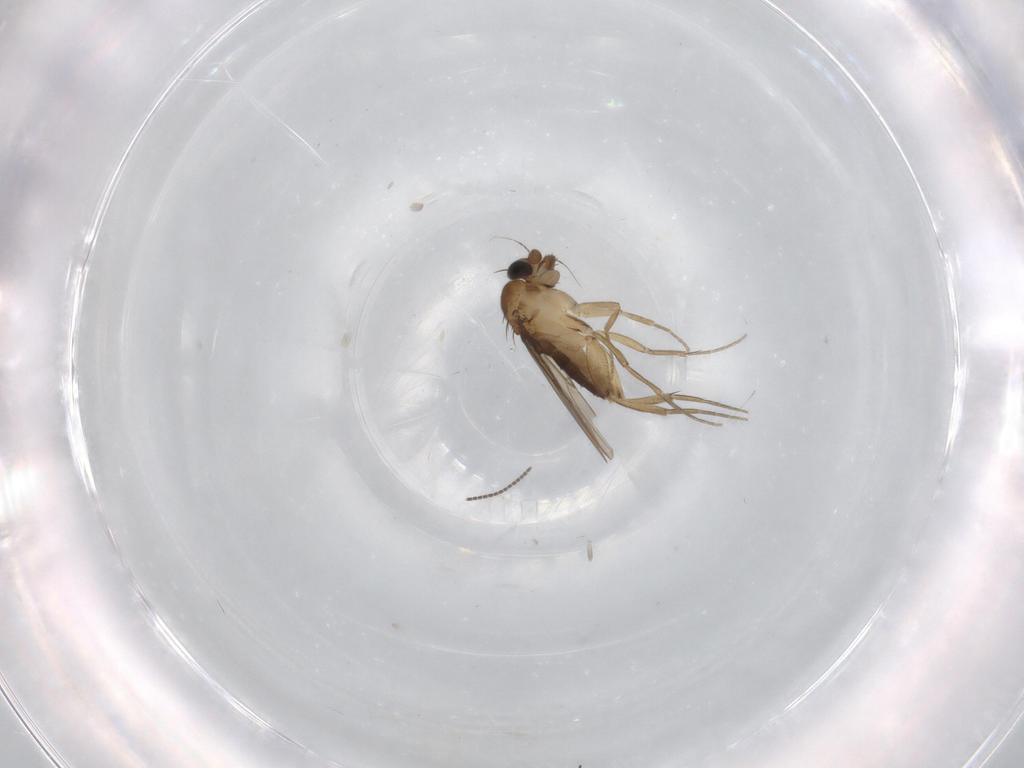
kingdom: Animalia
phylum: Arthropoda
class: Insecta
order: Diptera
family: Phoridae
